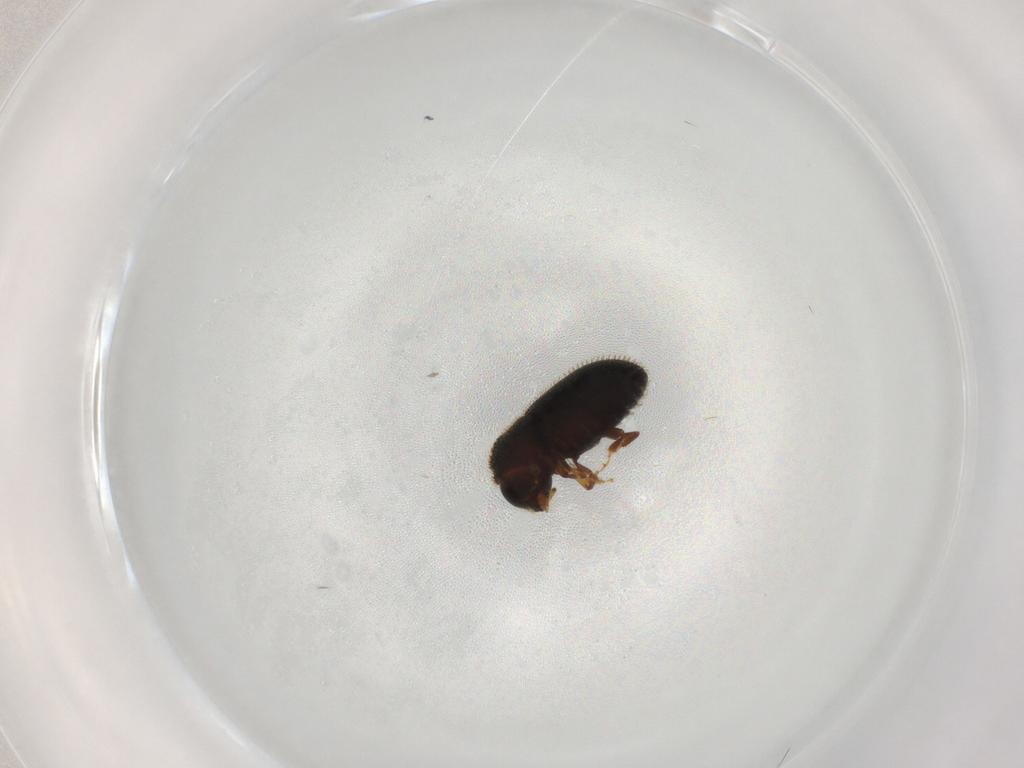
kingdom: Animalia
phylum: Arthropoda
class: Insecta
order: Coleoptera
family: Curculionidae
